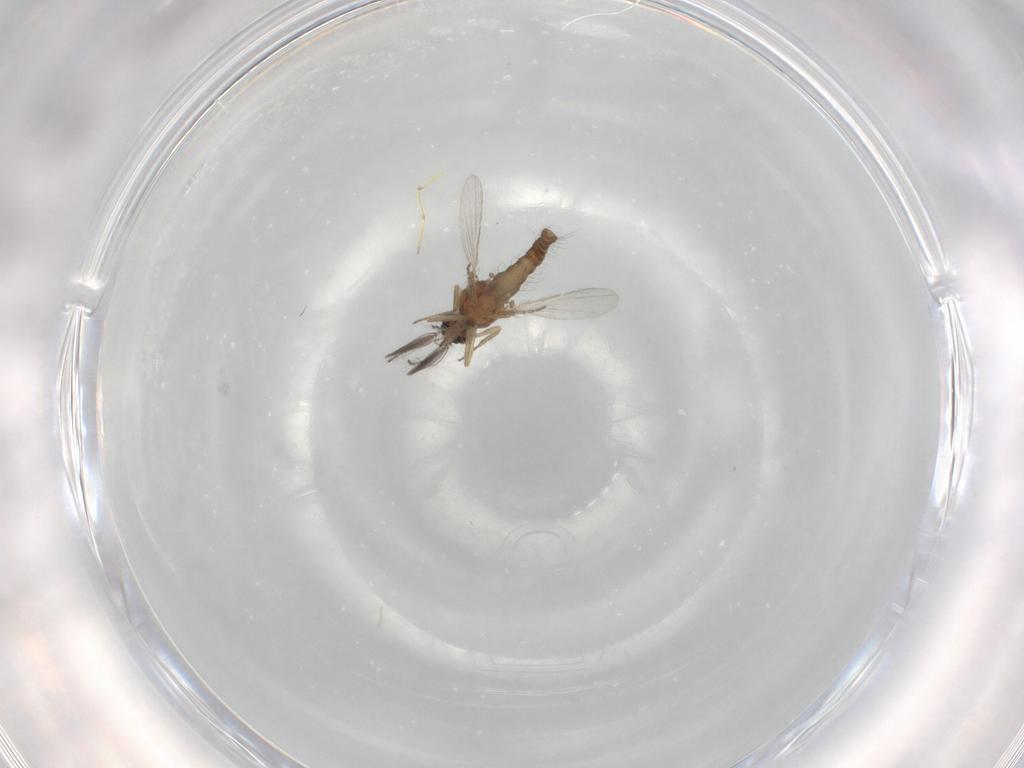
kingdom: Animalia
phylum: Arthropoda
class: Insecta
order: Diptera
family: Ceratopogonidae
